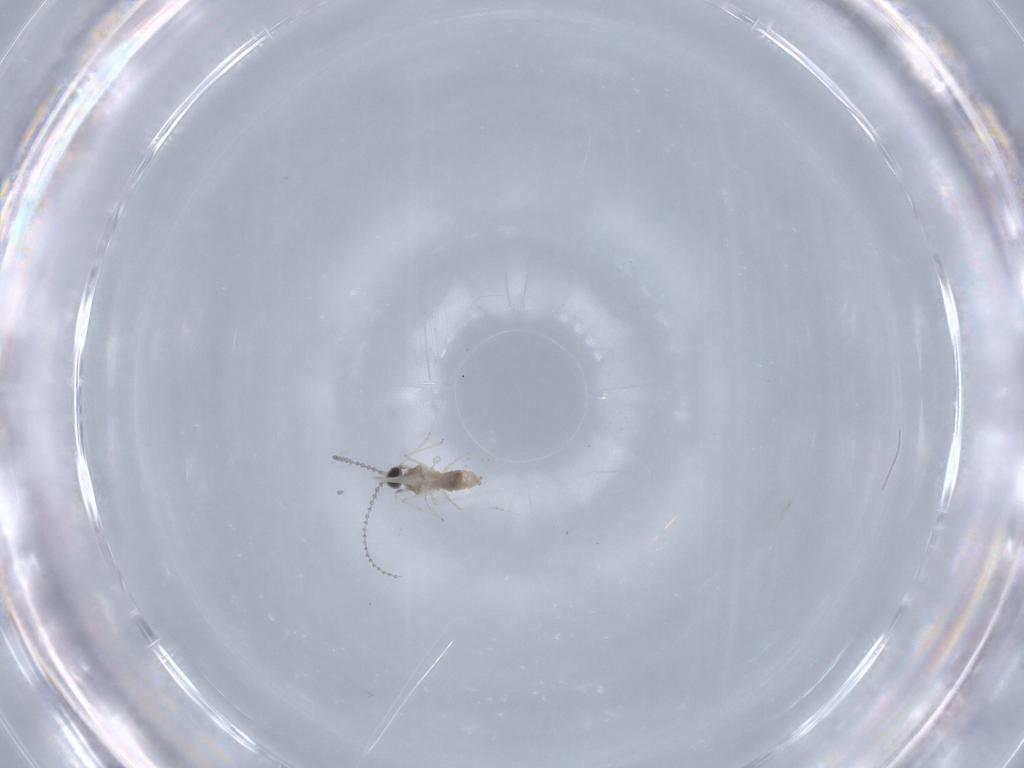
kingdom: Animalia
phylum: Arthropoda
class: Insecta
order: Diptera
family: Cecidomyiidae
